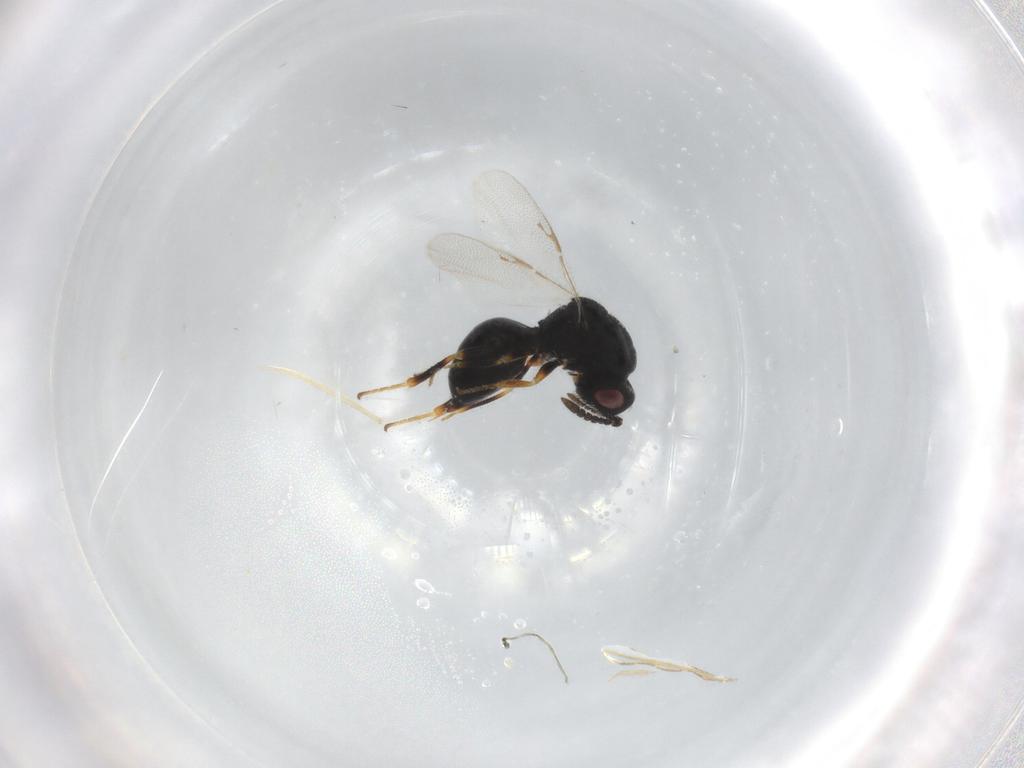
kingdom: Animalia
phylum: Arthropoda
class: Insecta
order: Hymenoptera
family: Eurytomidae
